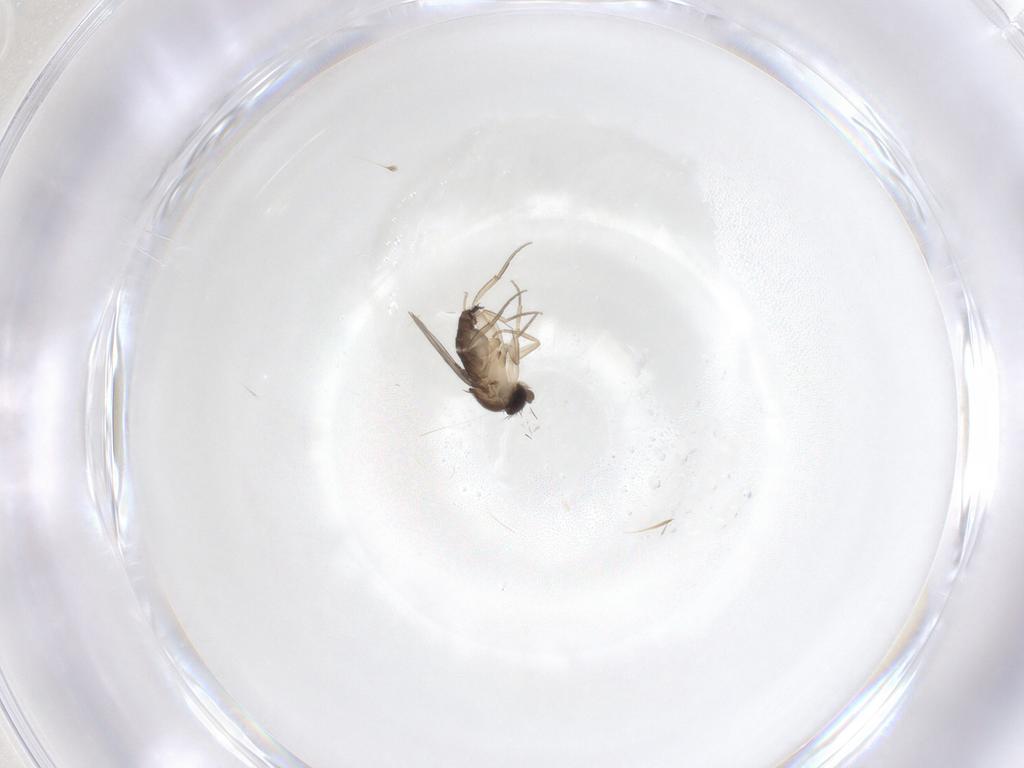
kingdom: Animalia
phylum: Arthropoda
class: Insecta
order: Diptera
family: Phoridae
